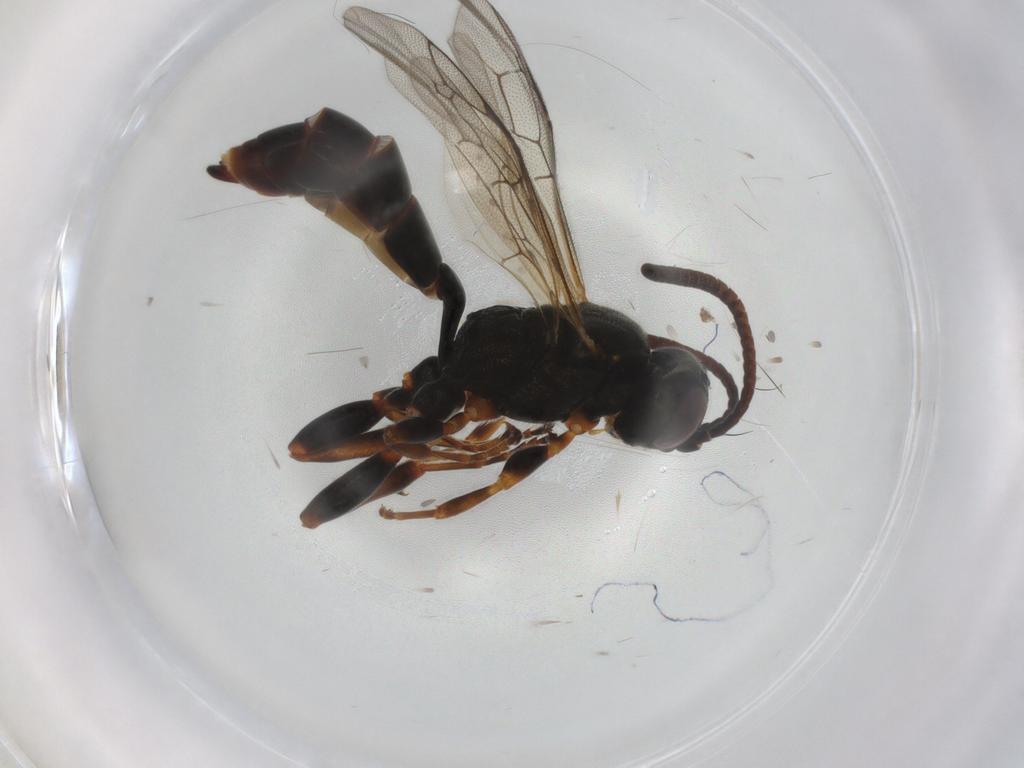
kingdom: Animalia
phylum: Arthropoda
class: Insecta
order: Hymenoptera
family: Ichneumonidae
